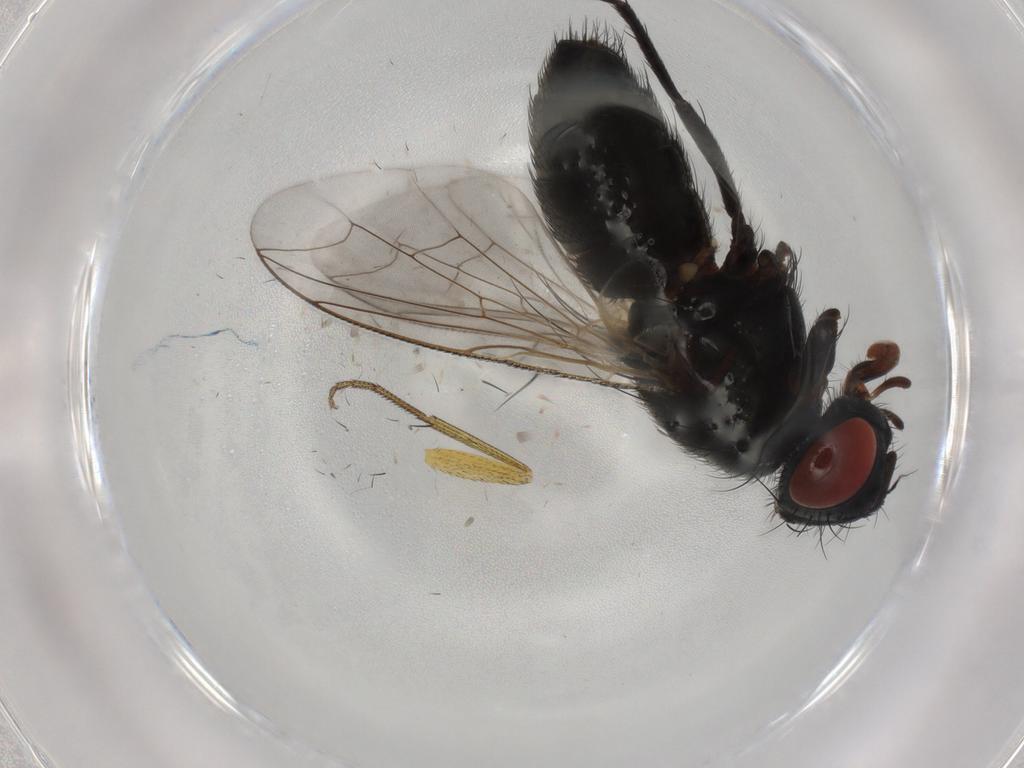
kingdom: Animalia
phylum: Arthropoda
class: Insecta
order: Diptera
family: Sarcophagidae
